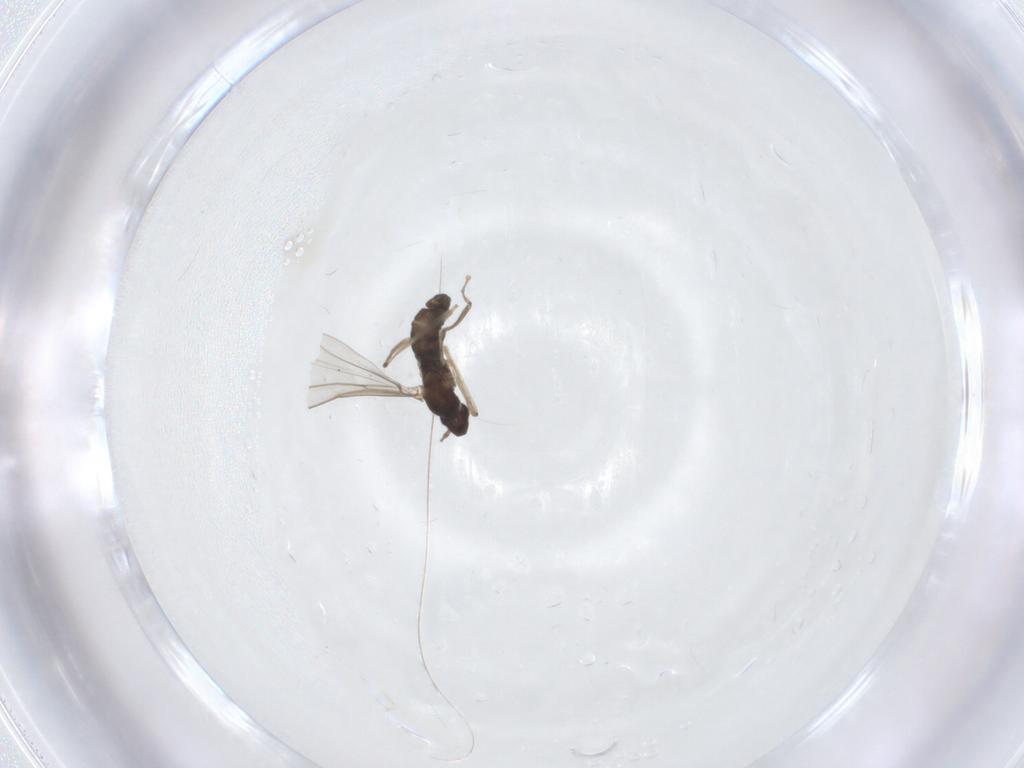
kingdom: Animalia
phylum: Arthropoda
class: Insecta
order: Diptera
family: Cecidomyiidae
